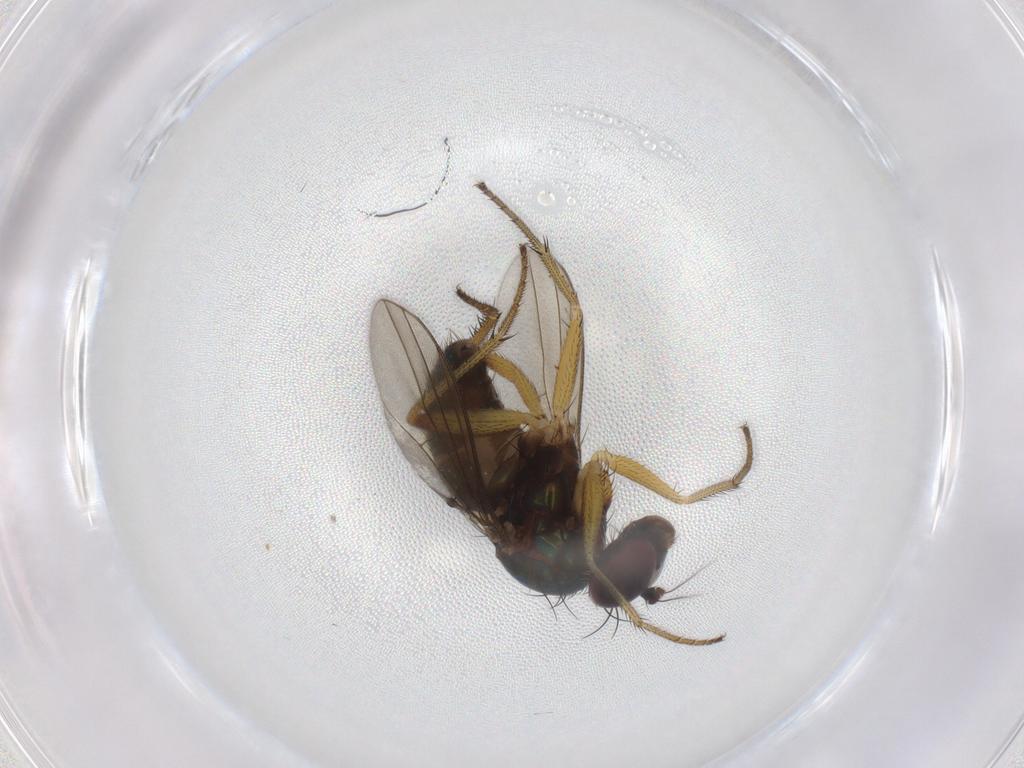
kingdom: Animalia
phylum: Arthropoda
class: Insecta
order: Diptera
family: Dolichopodidae
